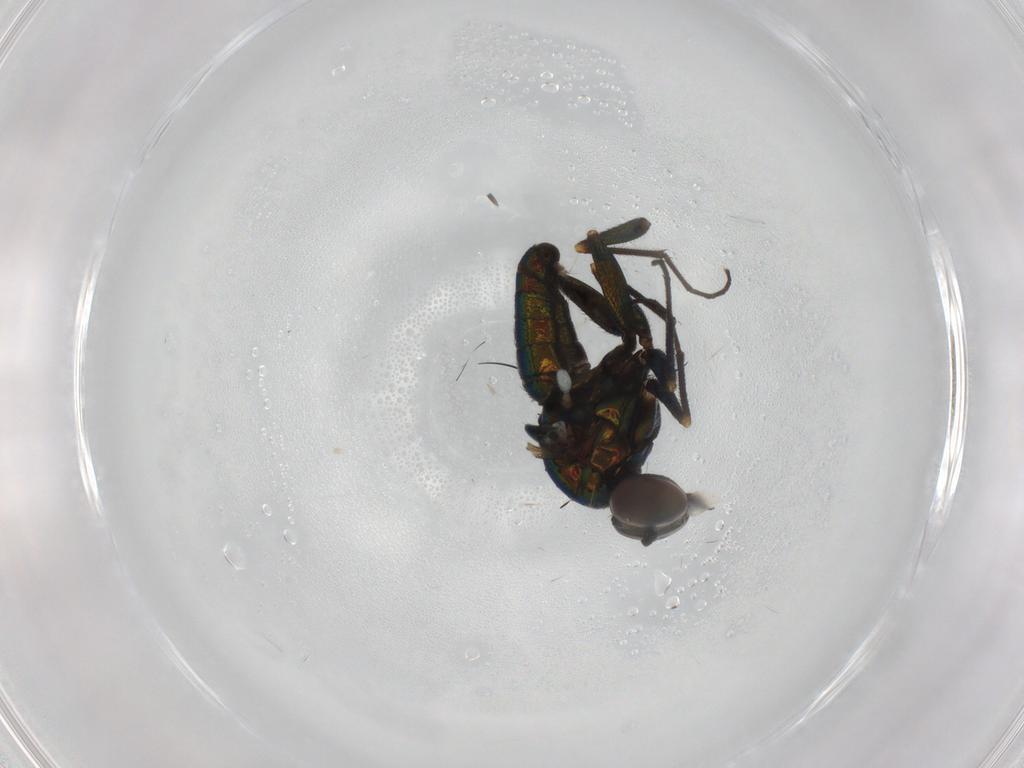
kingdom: Animalia
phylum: Arthropoda
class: Insecta
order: Diptera
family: Dolichopodidae
